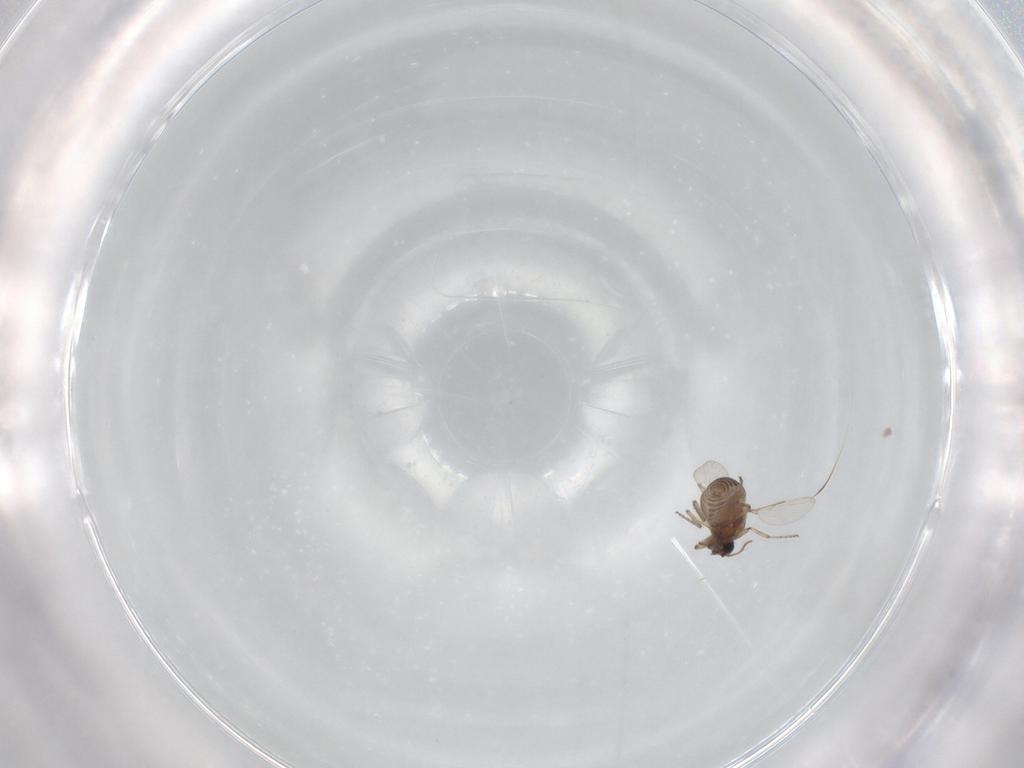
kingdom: Animalia
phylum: Arthropoda
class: Insecta
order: Diptera
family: Ceratopogonidae
